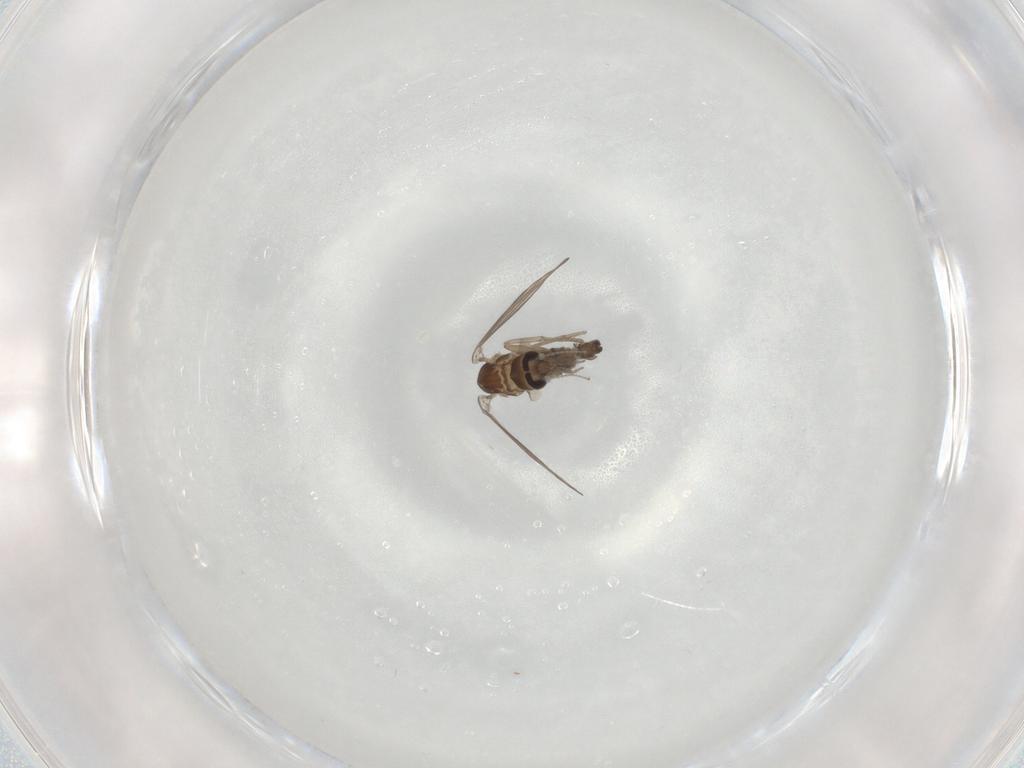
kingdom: Animalia
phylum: Arthropoda
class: Insecta
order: Diptera
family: Psychodidae
